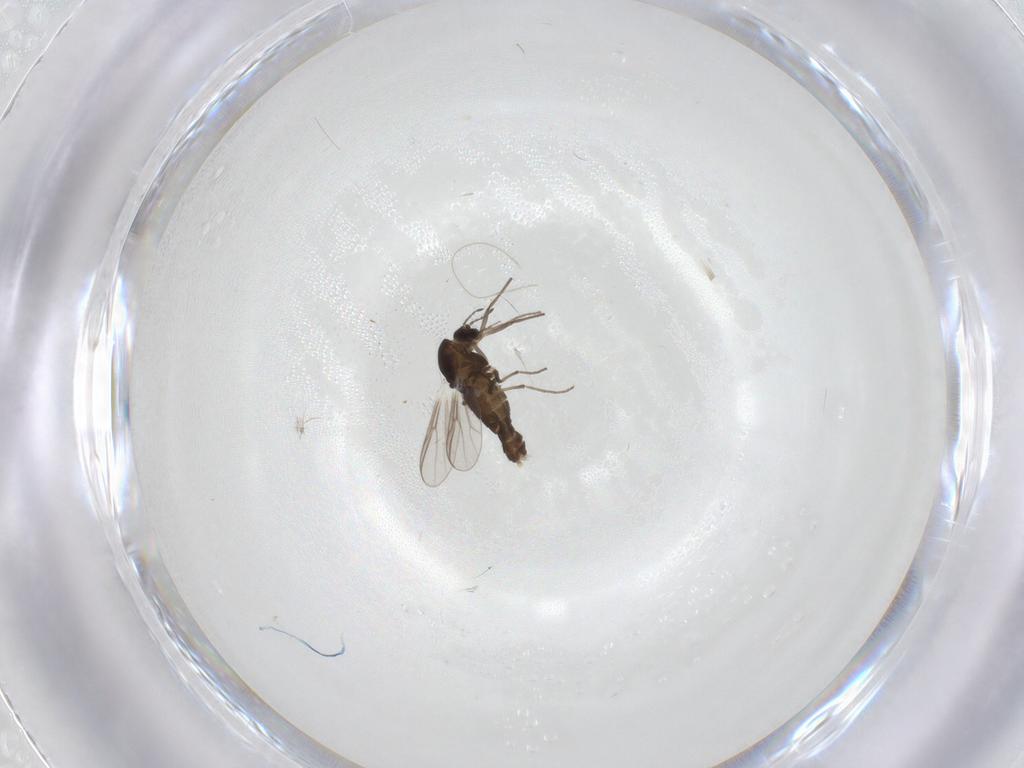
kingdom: Animalia
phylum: Arthropoda
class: Insecta
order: Diptera
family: Chironomidae
